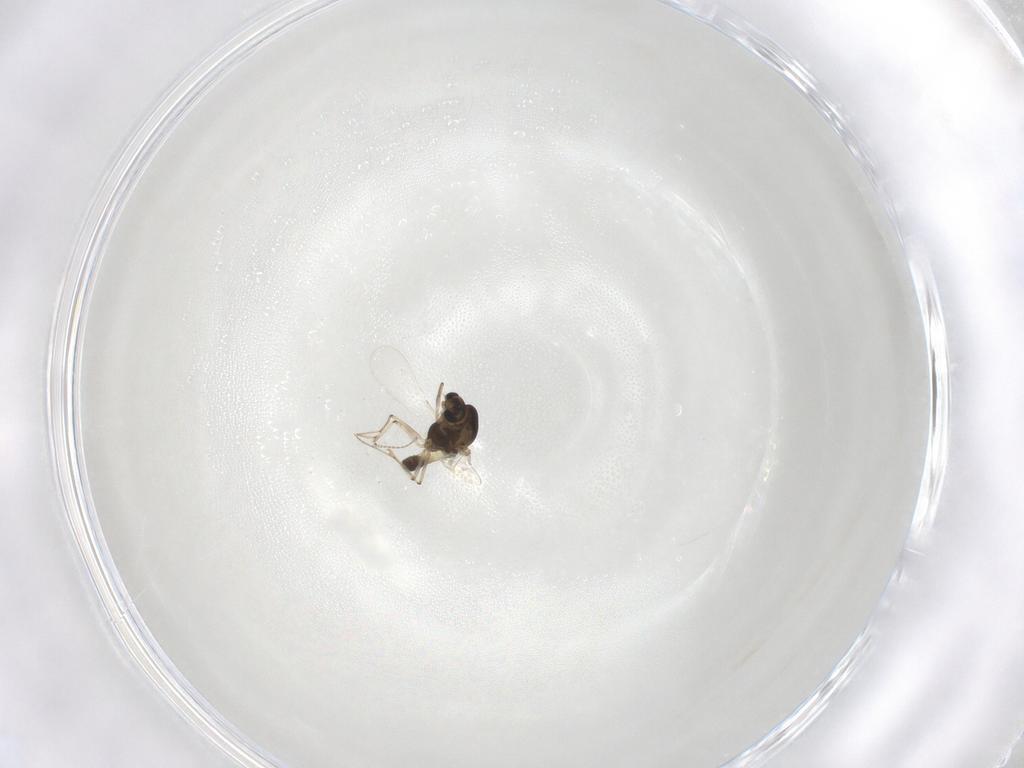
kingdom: Animalia
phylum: Arthropoda
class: Insecta
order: Diptera
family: Chironomidae
